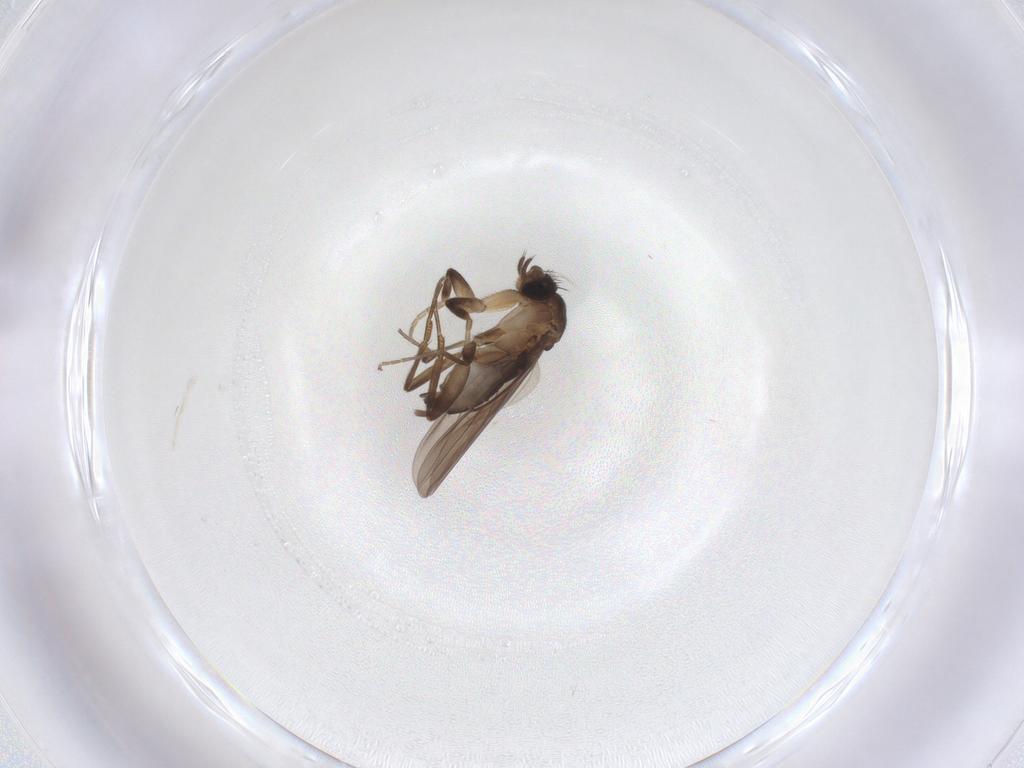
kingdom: Animalia
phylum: Arthropoda
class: Insecta
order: Diptera
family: Phoridae
